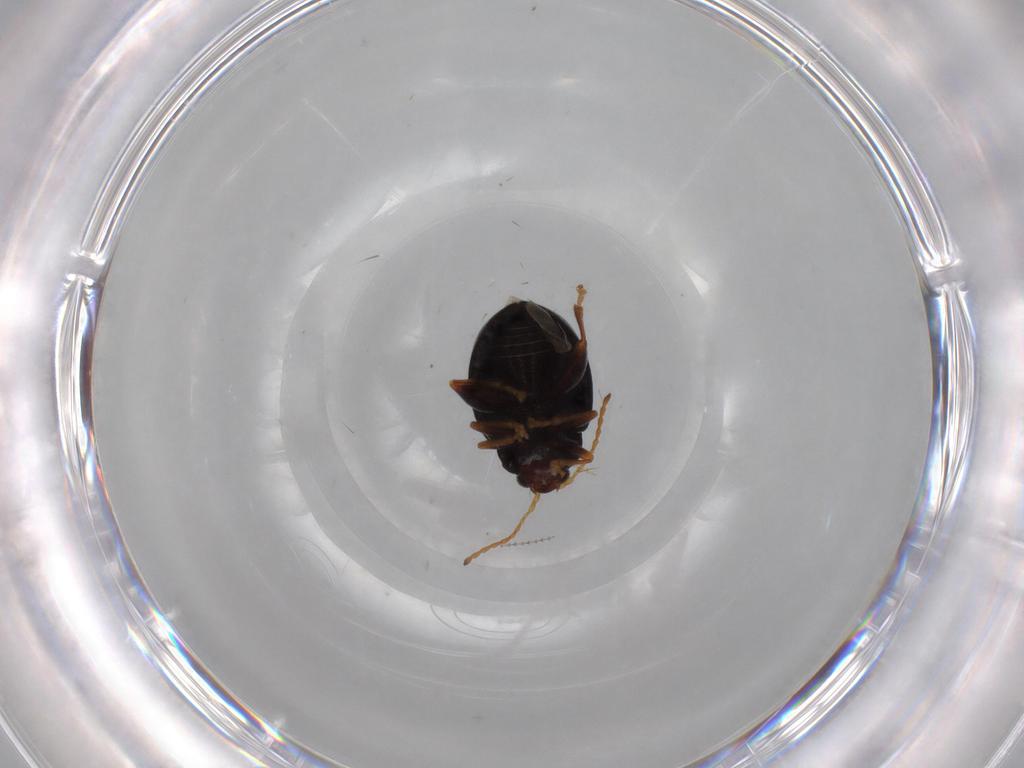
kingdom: Animalia
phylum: Arthropoda
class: Insecta
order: Coleoptera
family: Chrysomelidae
